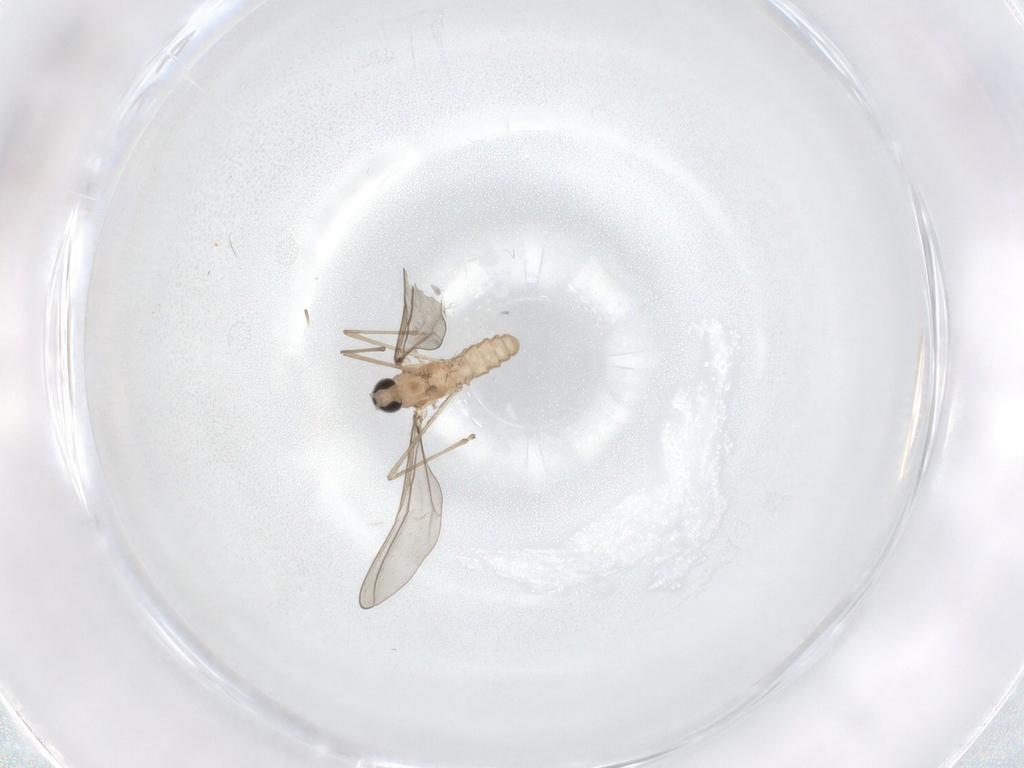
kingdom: Animalia
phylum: Arthropoda
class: Insecta
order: Diptera
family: Cecidomyiidae
